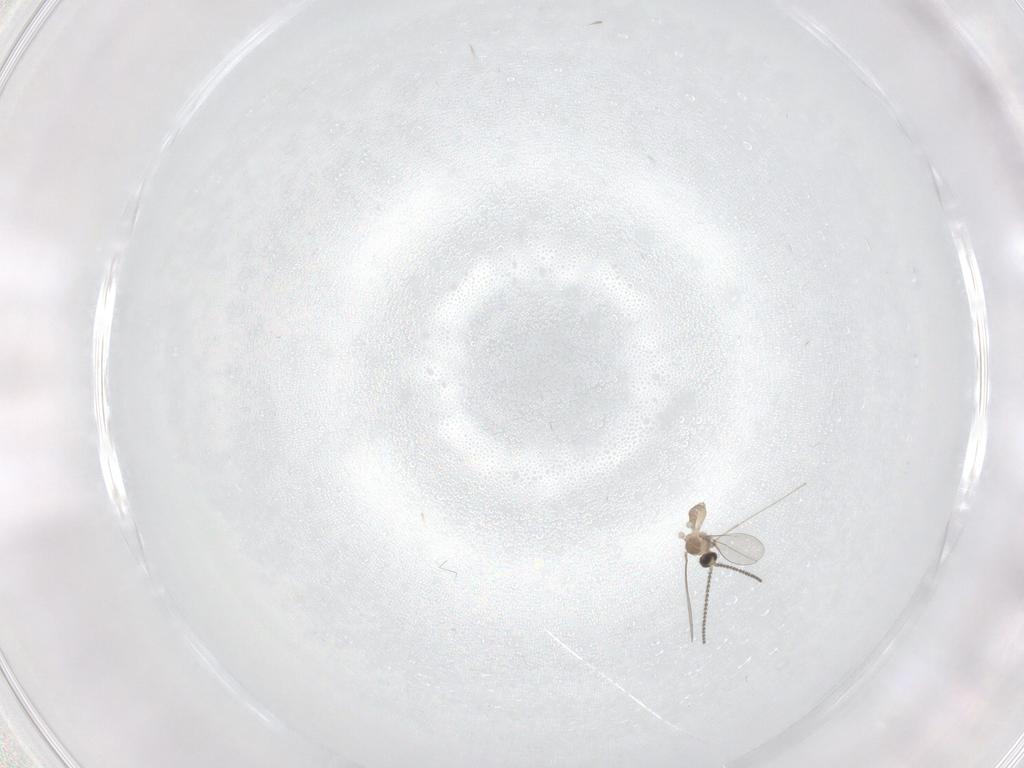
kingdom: Animalia
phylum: Arthropoda
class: Insecta
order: Diptera
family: Cecidomyiidae
